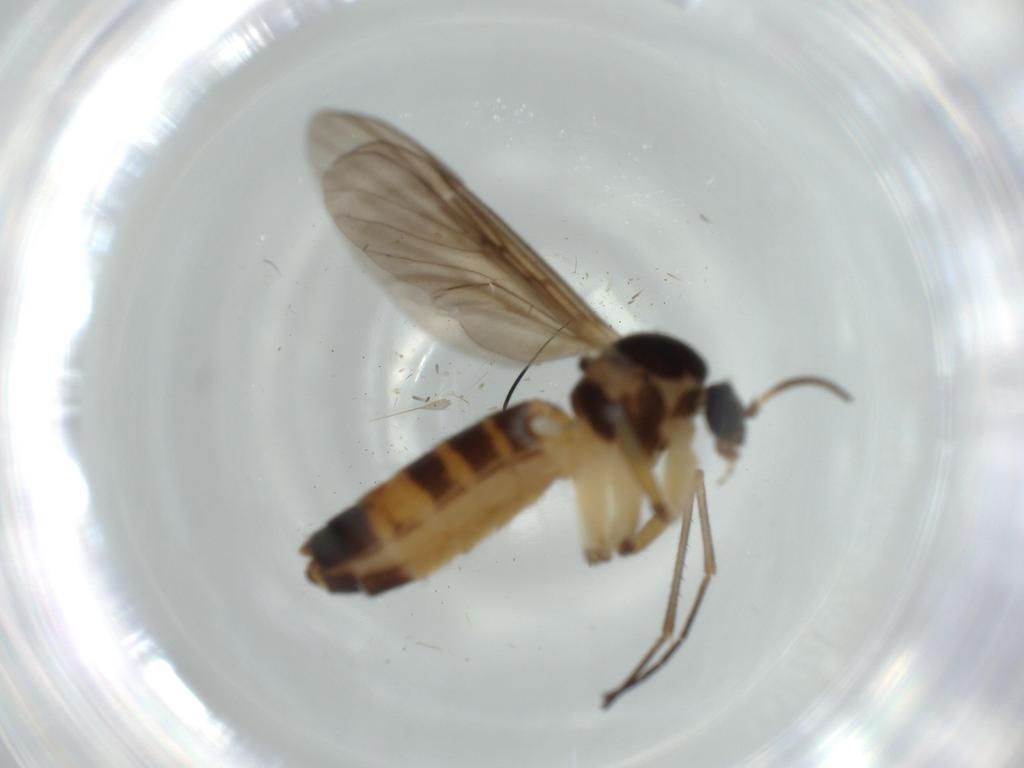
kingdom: Animalia
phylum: Arthropoda
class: Insecta
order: Diptera
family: Mycetophilidae
